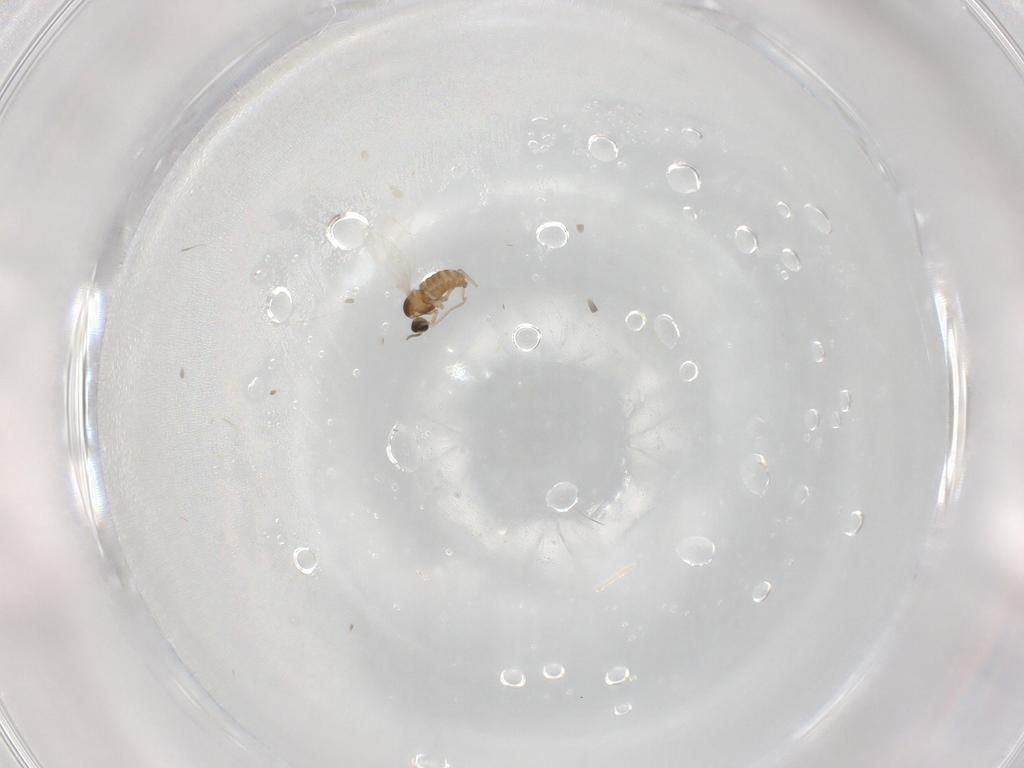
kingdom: Animalia
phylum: Arthropoda
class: Insecta
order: Diptera
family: Cecidomyiidae
